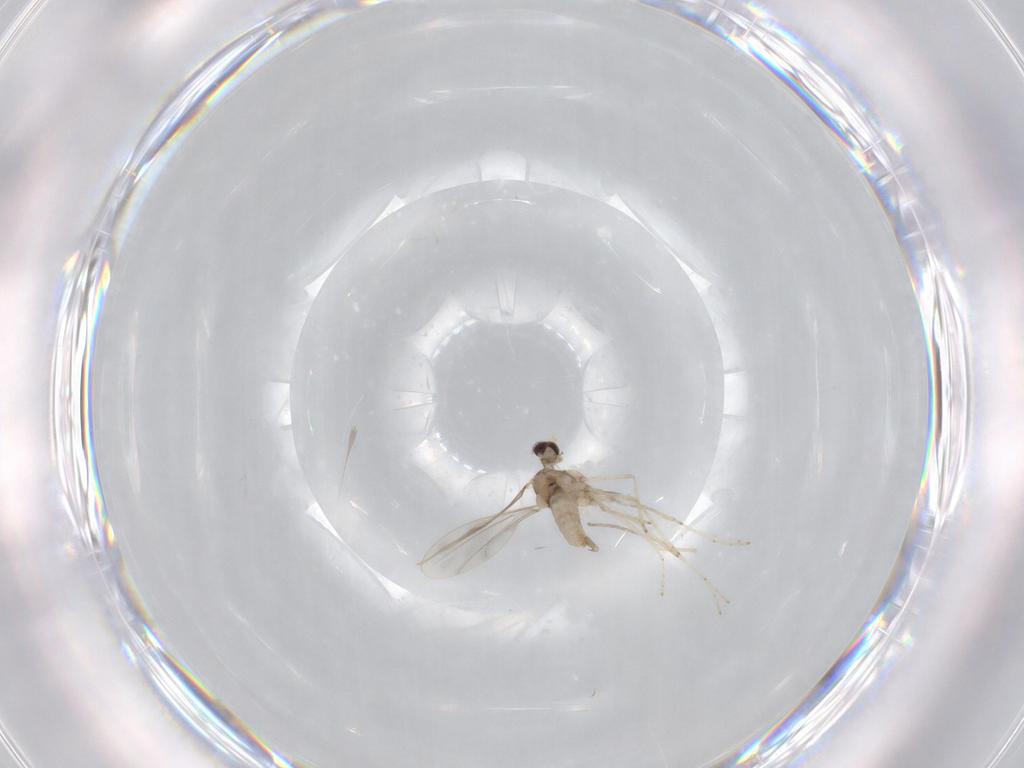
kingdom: Animalia
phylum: Arthropoda
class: Insecta
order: Diptera
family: Cecidomyiidae
